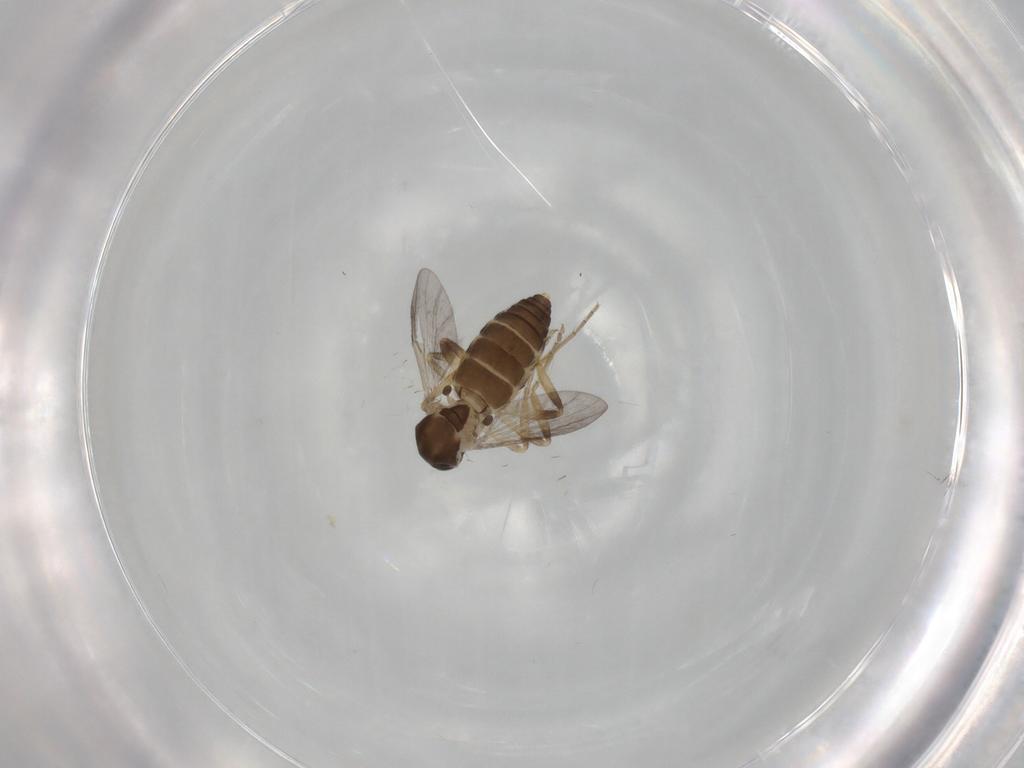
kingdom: Animalia
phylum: Arthropoda
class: Insecta
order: Diptera
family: Ceratopogonidae
